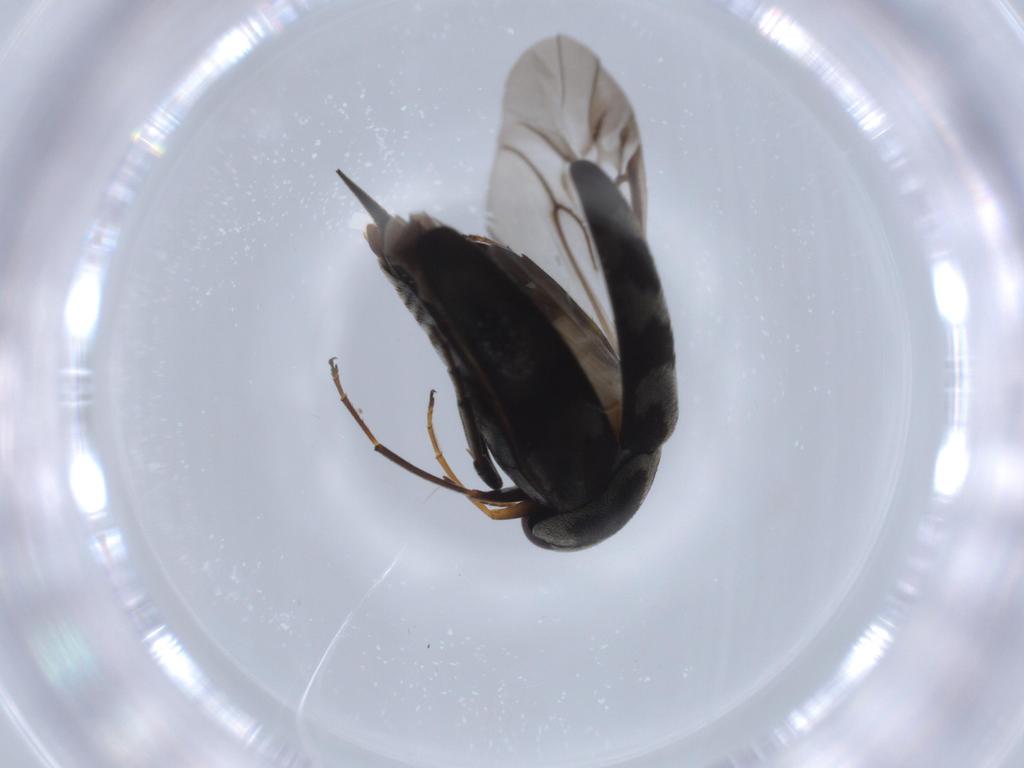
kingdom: Animalia
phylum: Arthropoda
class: Insecta
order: Coleoptera
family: Mordellidae
